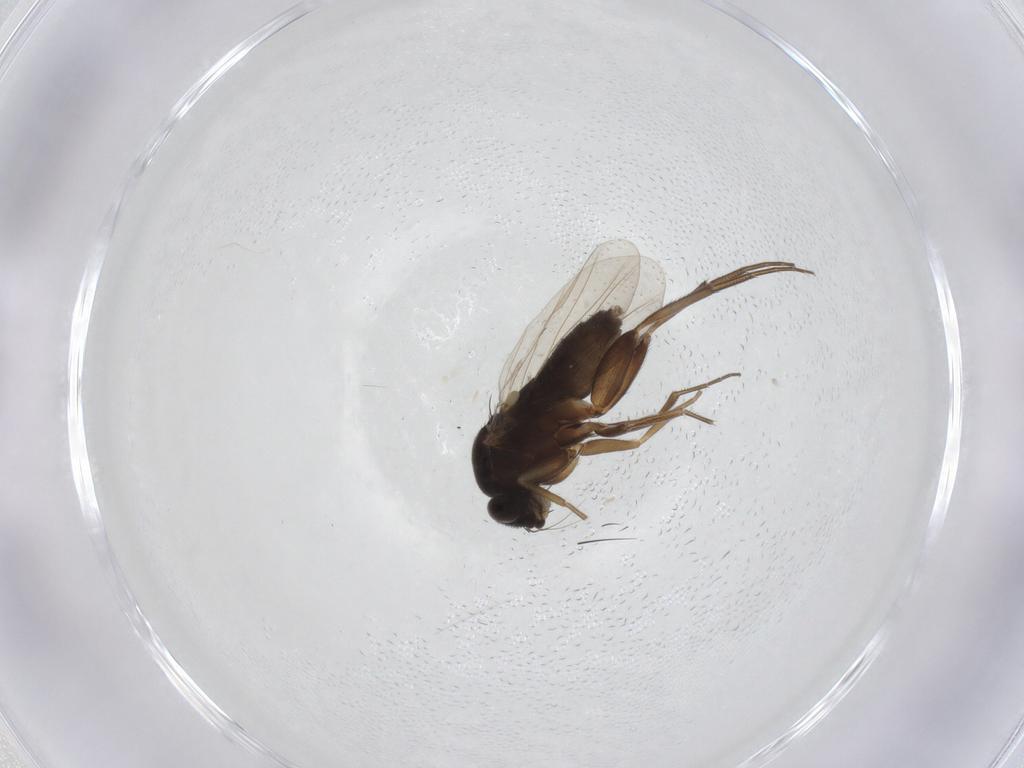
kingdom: Animalia
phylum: Arthropoda
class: Insecta
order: Diptera
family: Phoridae
